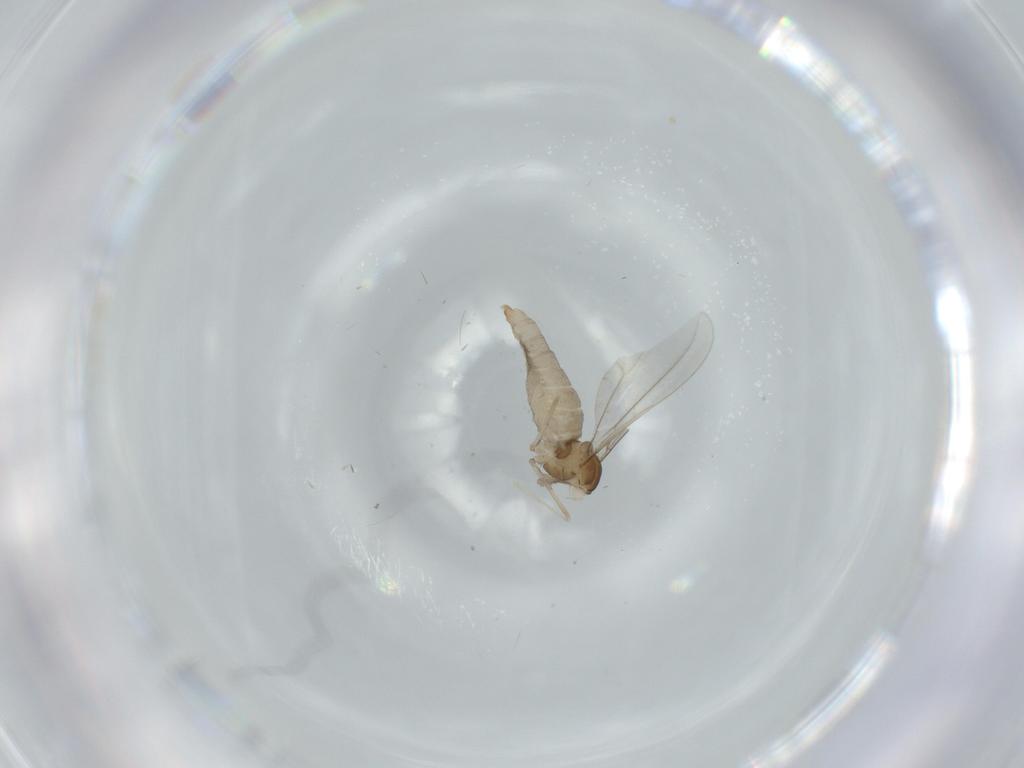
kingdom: Animalia
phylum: Arthropoda
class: Insecta
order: Diptera
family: Cecidomyiidae
